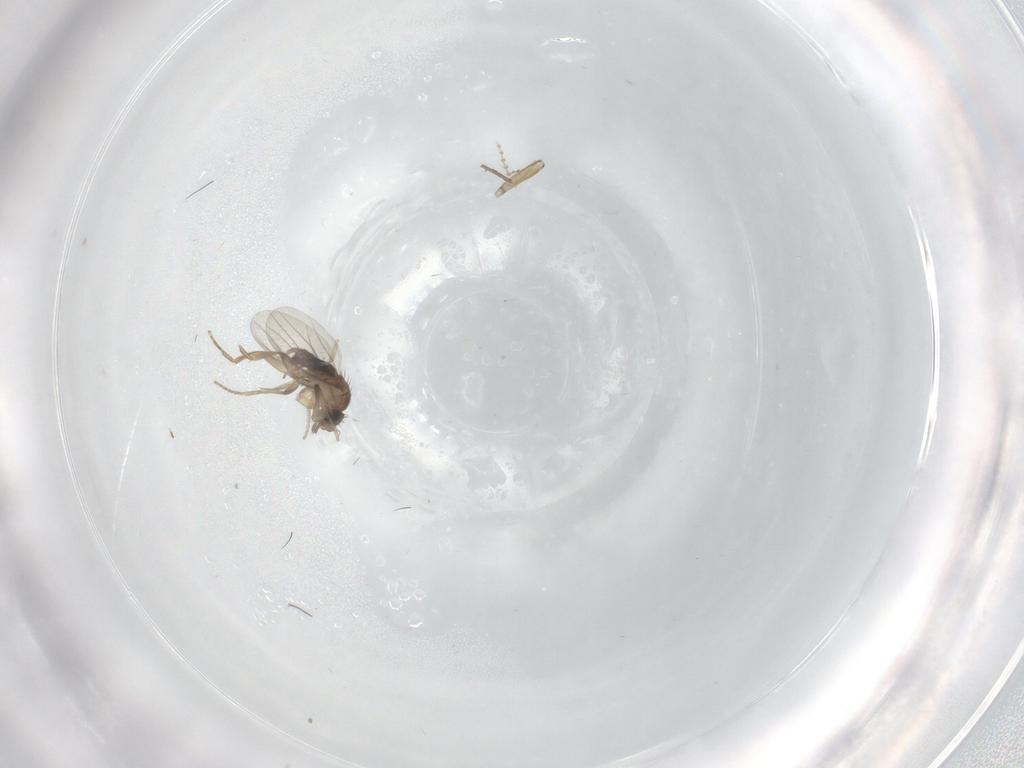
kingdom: Animalia
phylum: Arthropoda
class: Insecta
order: Diptera
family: Cecidomyiidae
